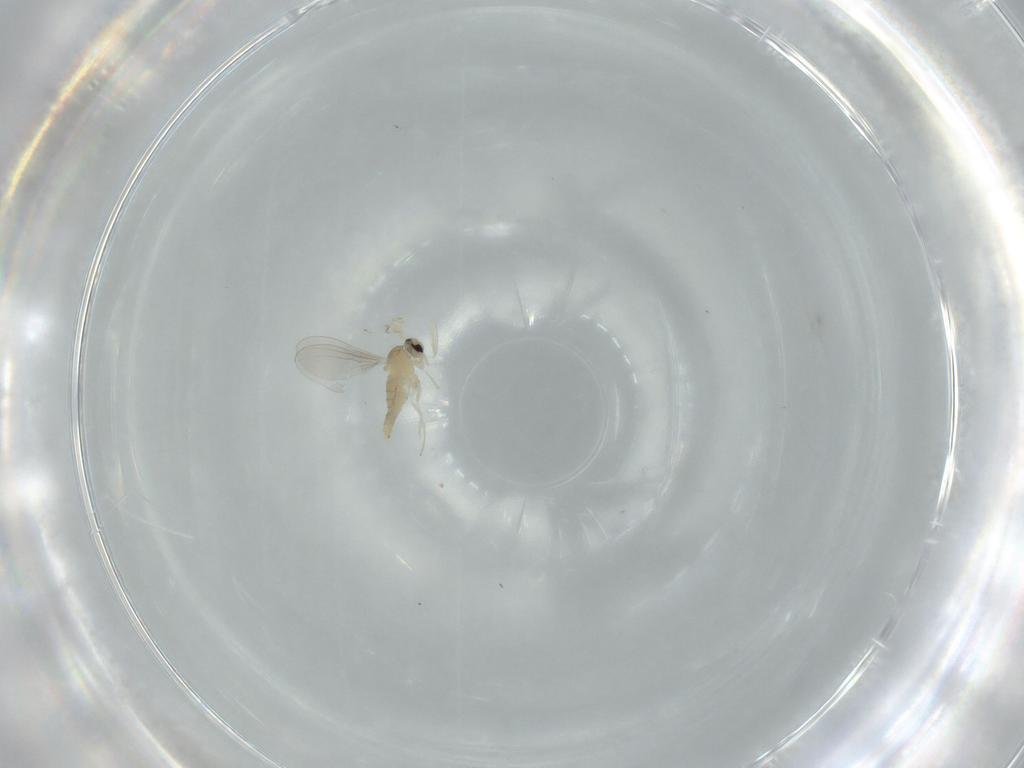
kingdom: Animalia
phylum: Arthropoda
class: Insecta
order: Diptera
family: Cecidomyiidae
